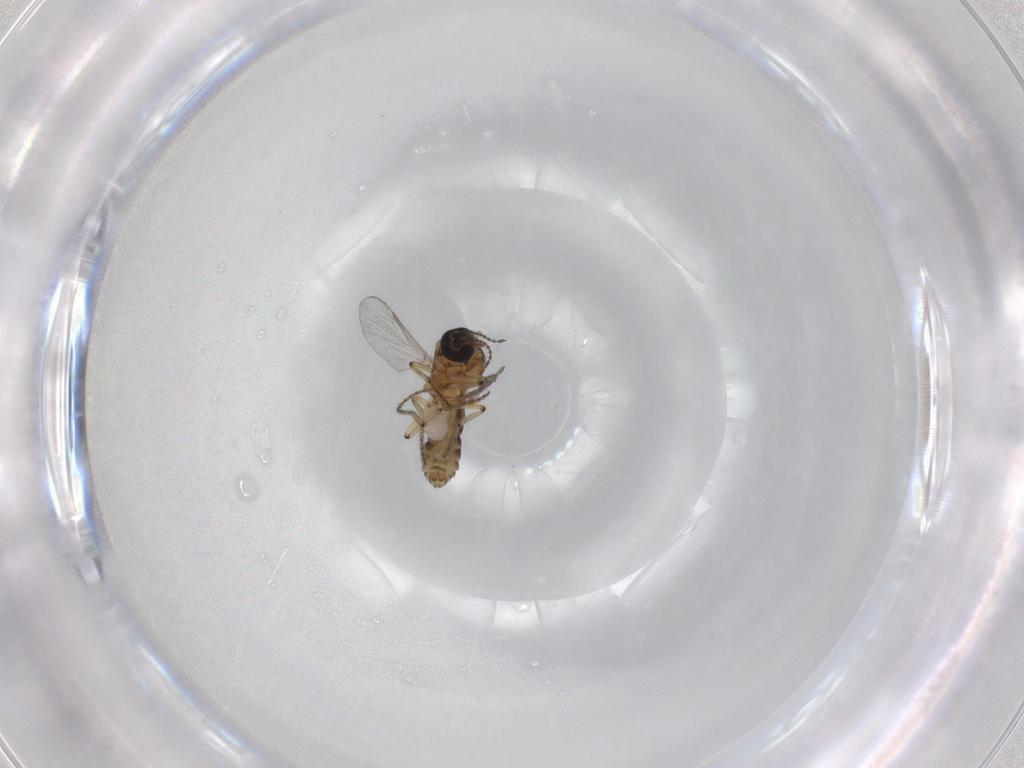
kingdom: Animalia
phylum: Arthropoda
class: Insecta
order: Diptera
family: Ceratopogonidae
